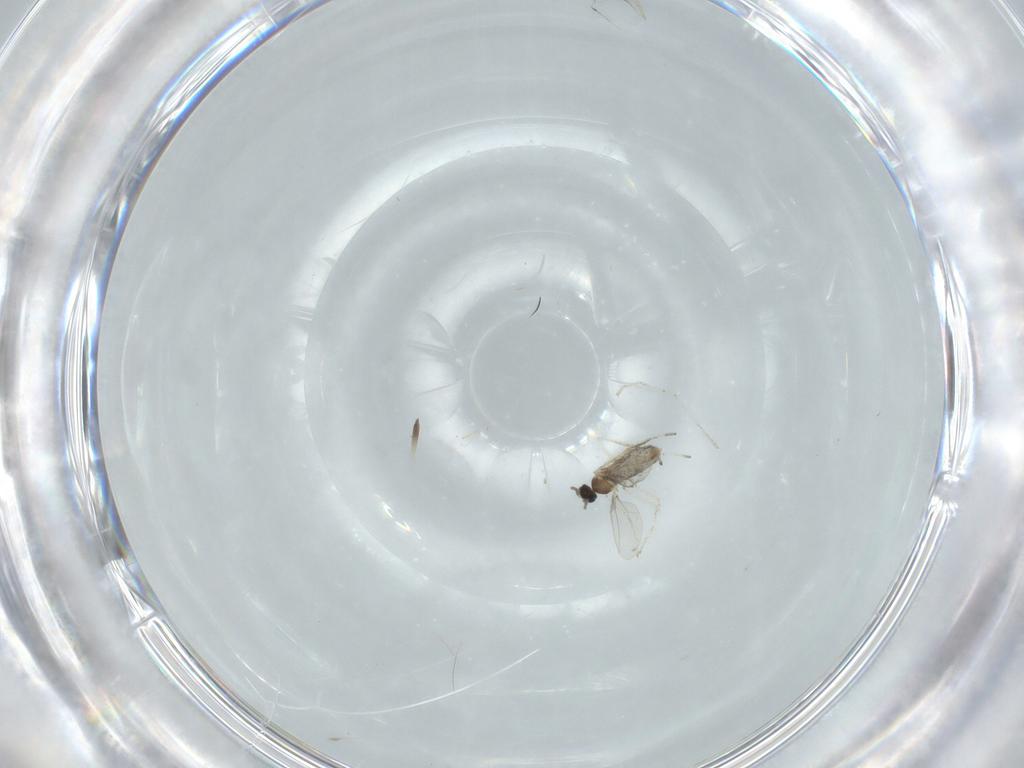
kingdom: Animalia
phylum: Arthropoda
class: Insecta
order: Diptera
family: Cecidomyiidae
